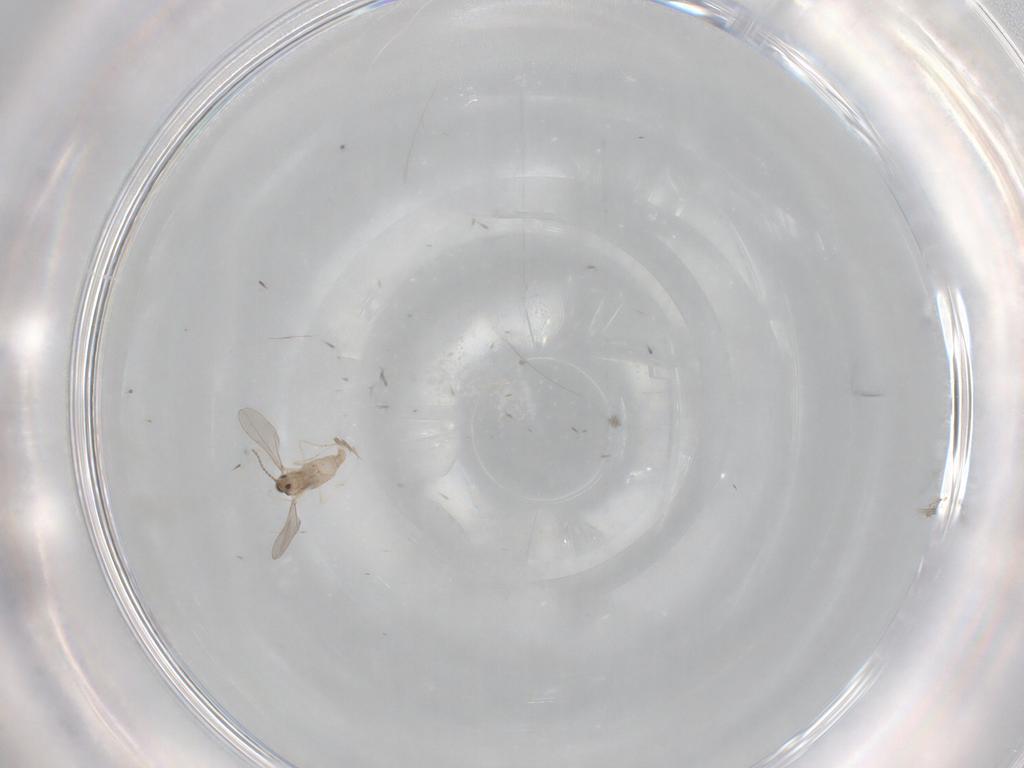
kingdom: Animalia
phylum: Arthropoda
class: Insecta
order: Diptera
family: Cecidomyiidae
